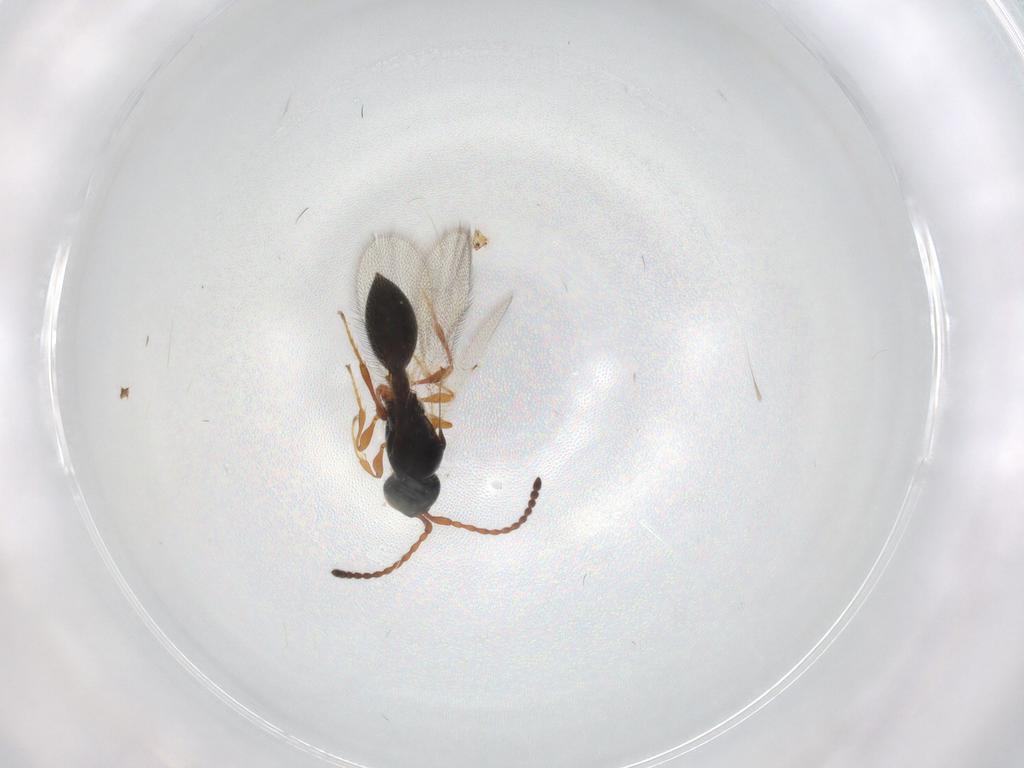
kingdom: Animalia
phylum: Arthropoda
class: Insecta
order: Hymenoptera
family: Diapriidae
